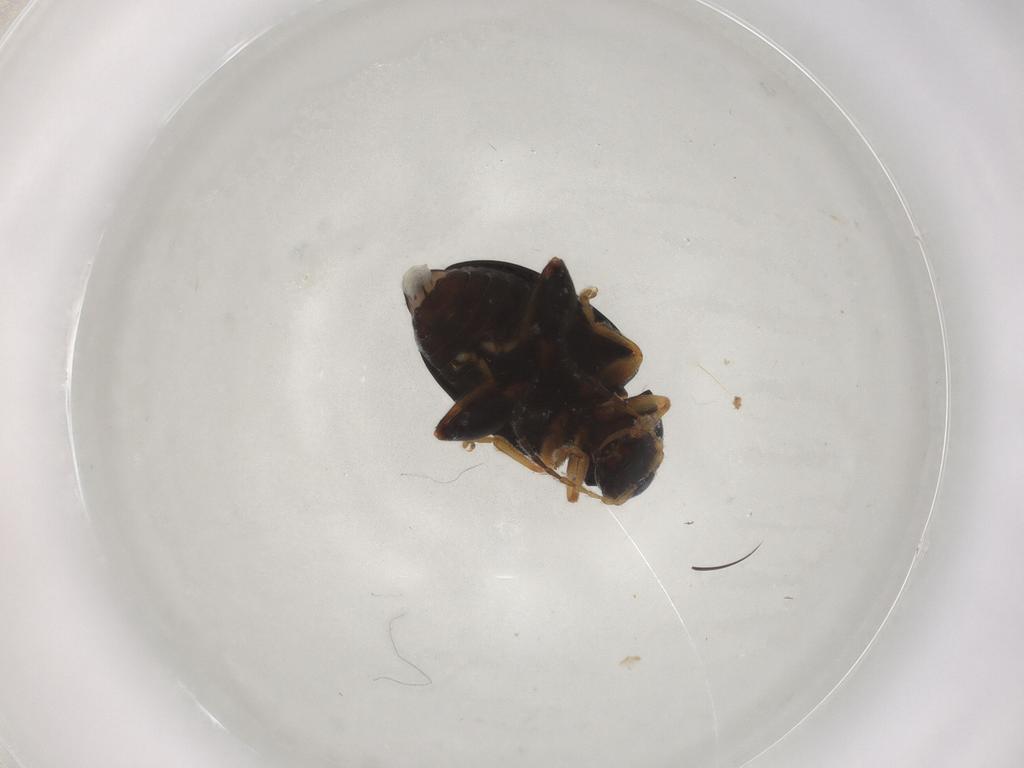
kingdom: Animalia
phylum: Arthropoda
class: Insecta
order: Coleoptera
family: Chrysomelidae
